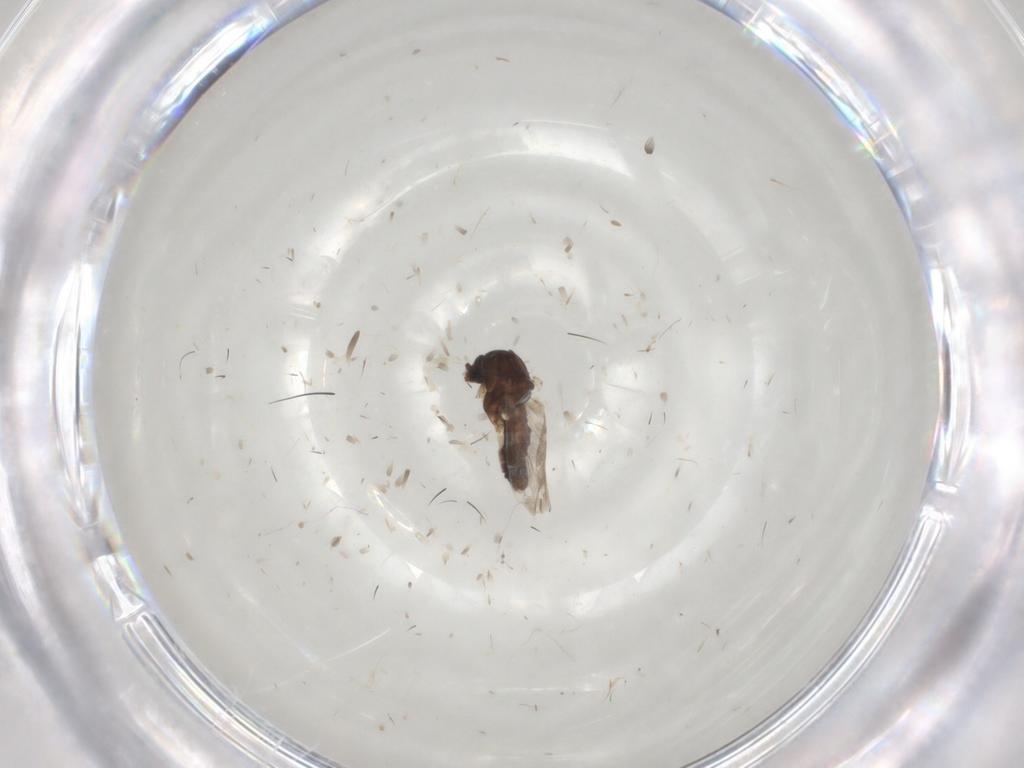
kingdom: Animalia
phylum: Arthropoda
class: Insecta
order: Diptera
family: Ceratopogonidae
